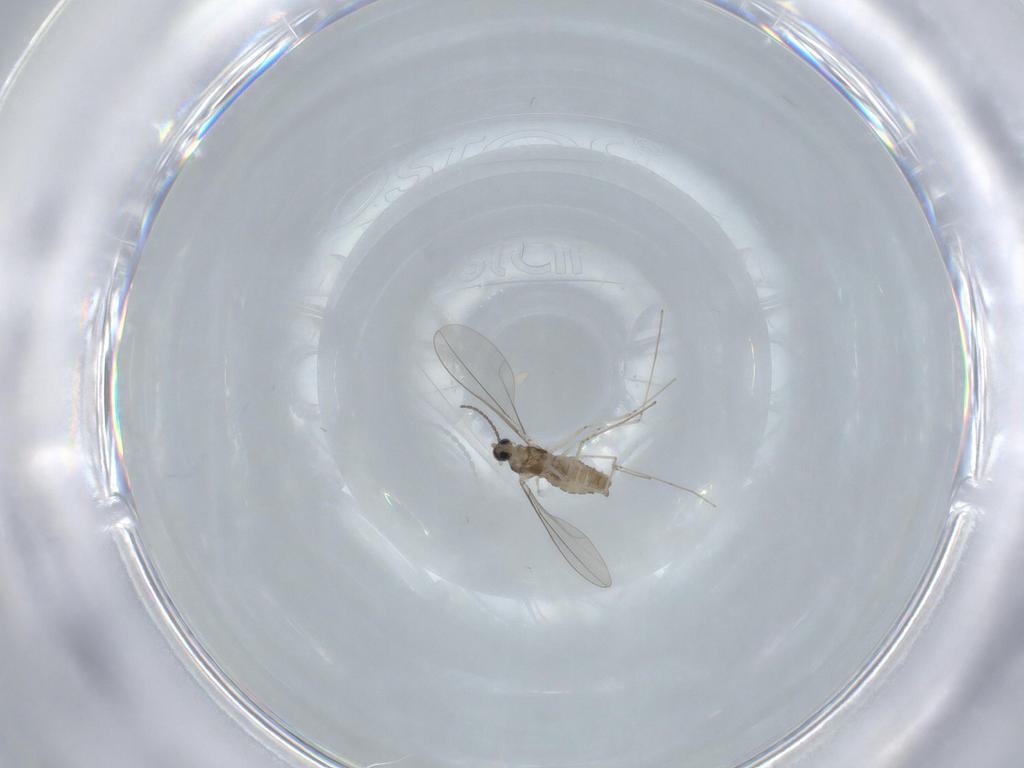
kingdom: Animalia
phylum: Arthropoda
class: Insecta
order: Diptera
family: Cecidomyiidae
